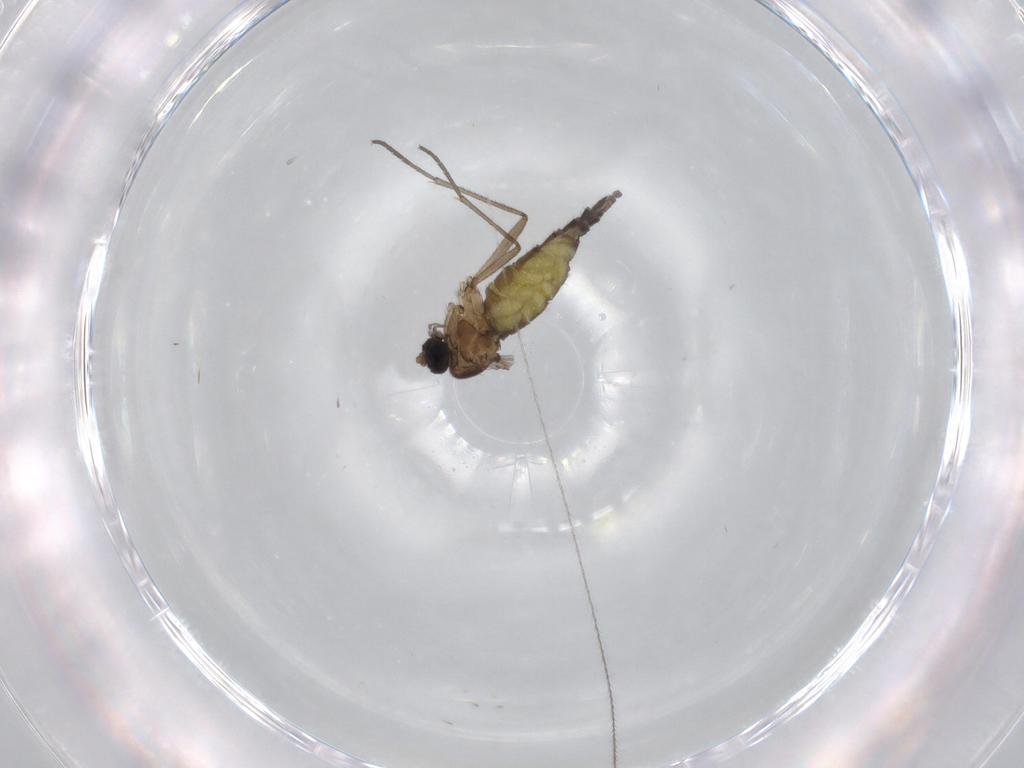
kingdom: Animalia
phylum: Arthropoda
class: Insecta
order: Diptera
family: Sciaridae
